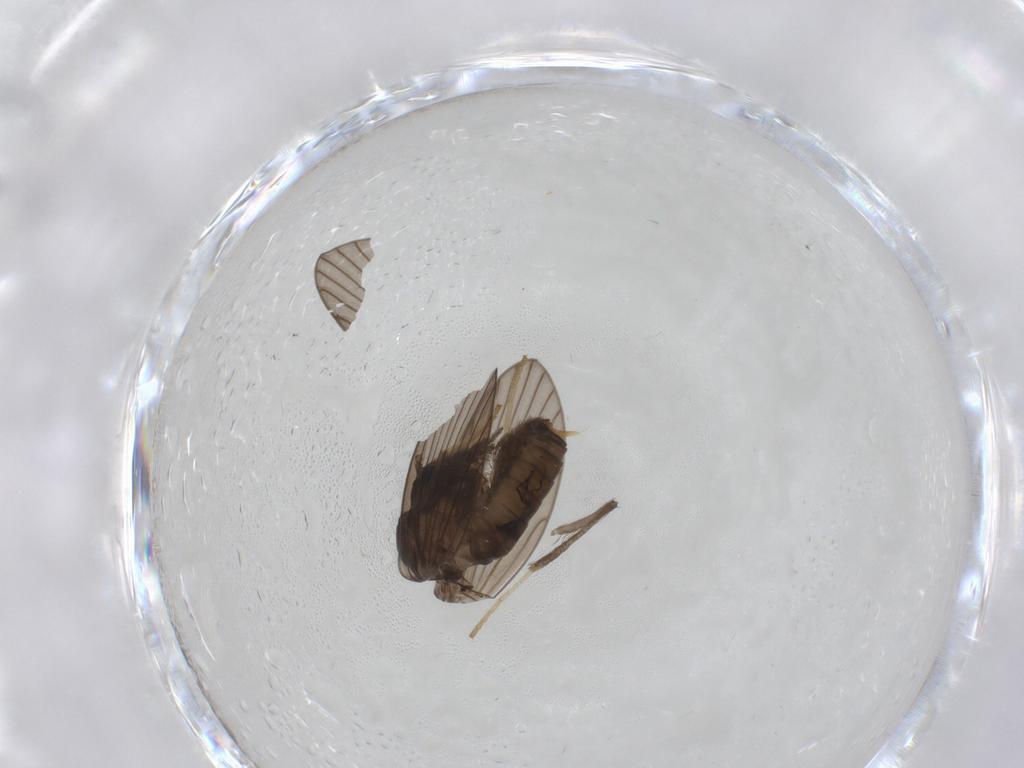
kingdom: Animalia
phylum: Arthropoda
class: Insecta
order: Diptera
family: Psychodidae
